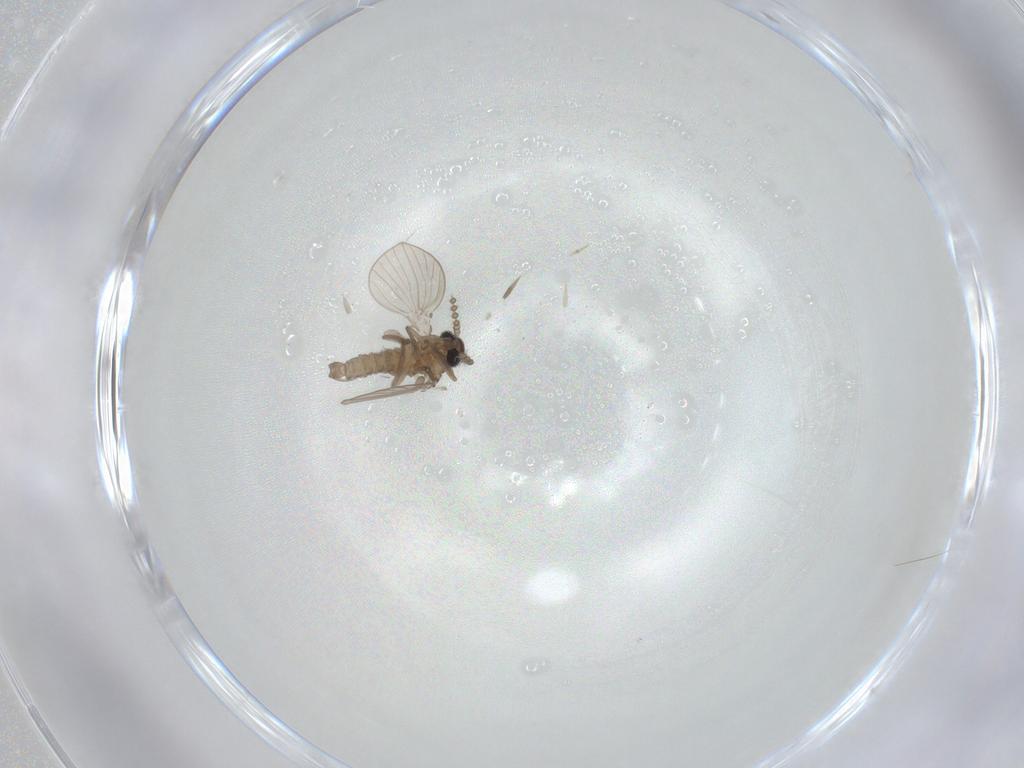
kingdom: Animalia
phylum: Arthropoda
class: Insecta
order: Diptera
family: Psychodidae
